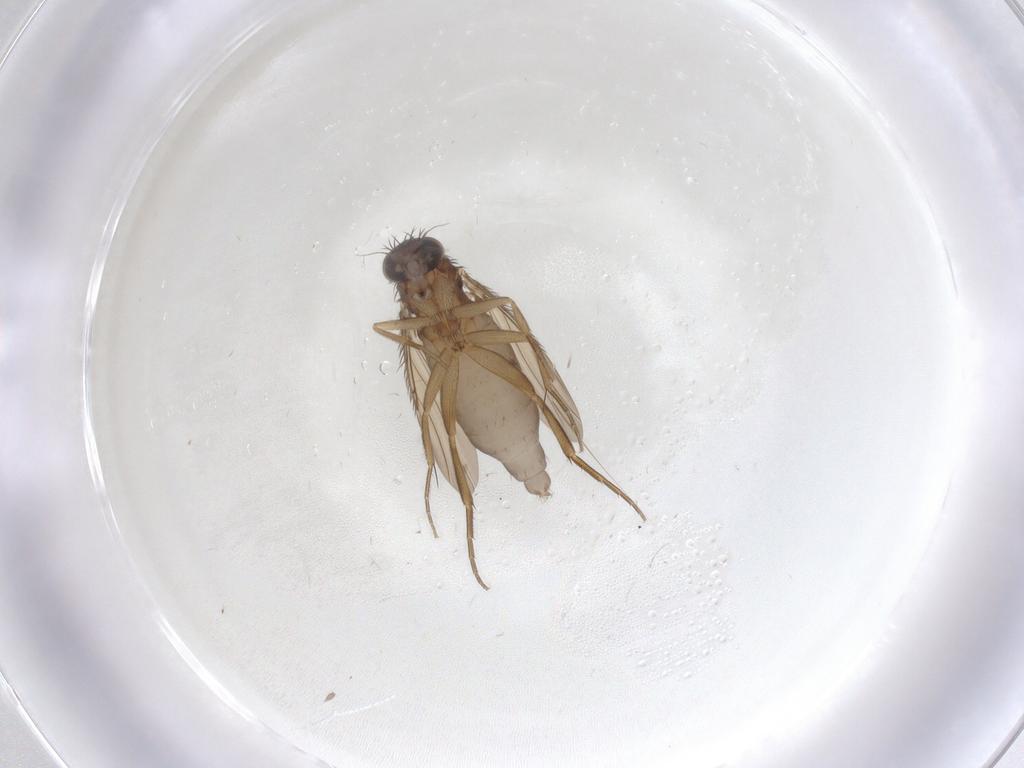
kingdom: Animalia
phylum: Arthropoda
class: Insecta
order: Diptera
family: Phoridae
